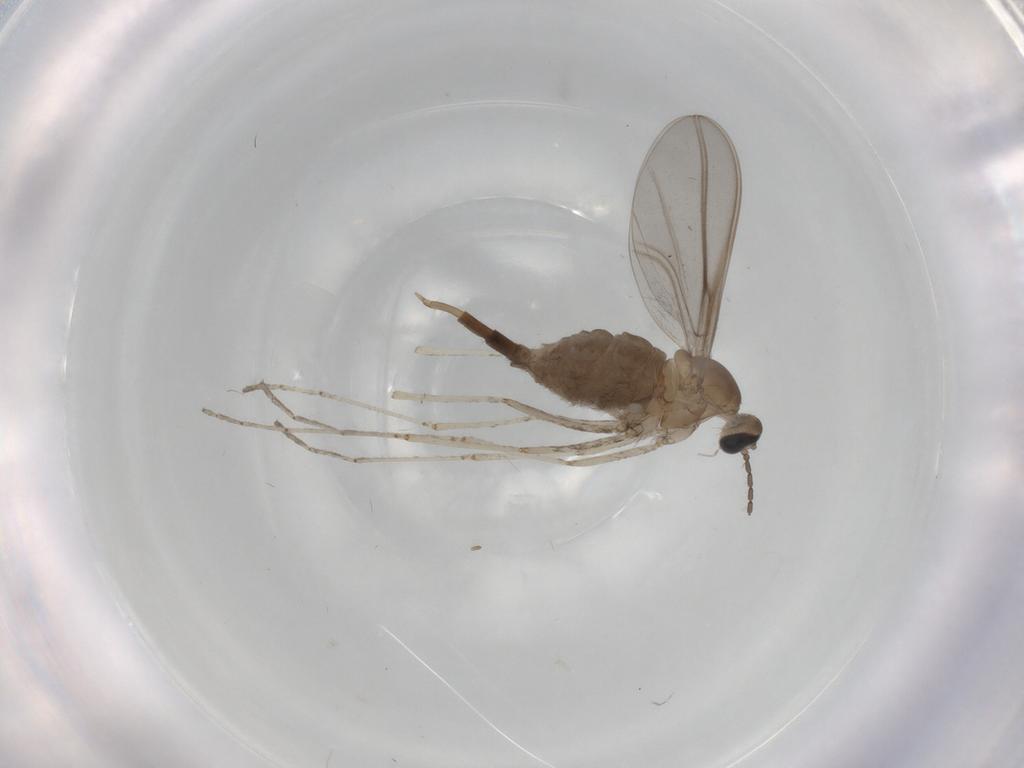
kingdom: Animalia
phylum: Arthropoda
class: Insecta
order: Diptera
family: Cecidomyiidae
